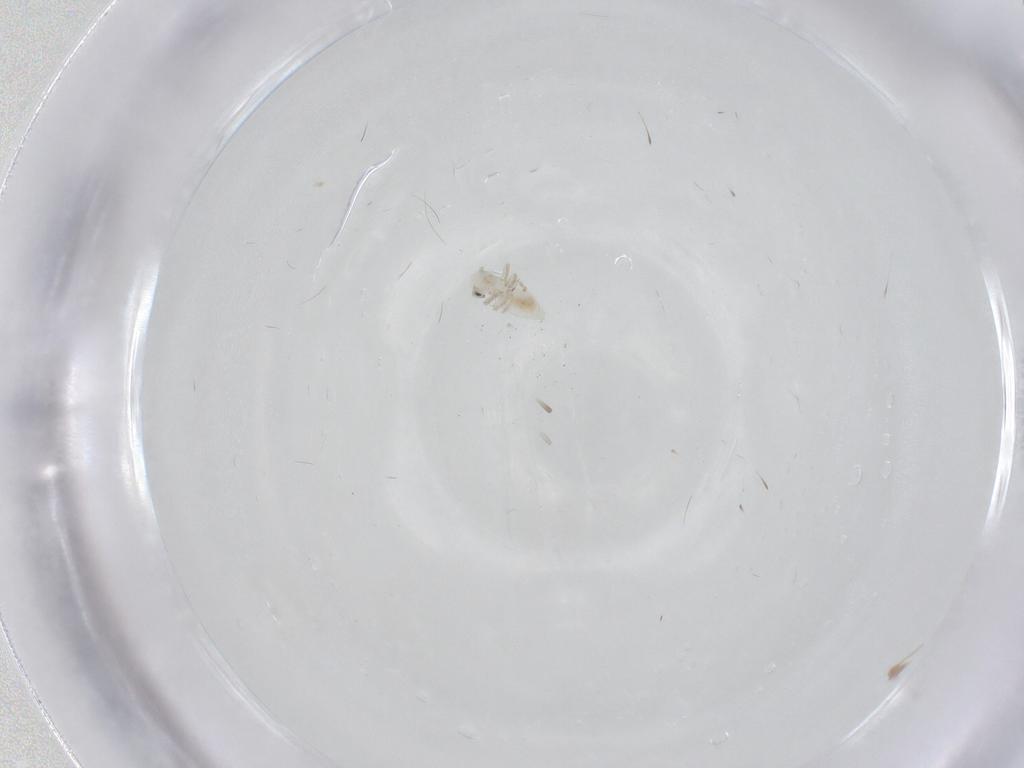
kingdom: Animalia
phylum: Arthropoda
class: Insecta
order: Psocodea
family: Caeciliusidae
